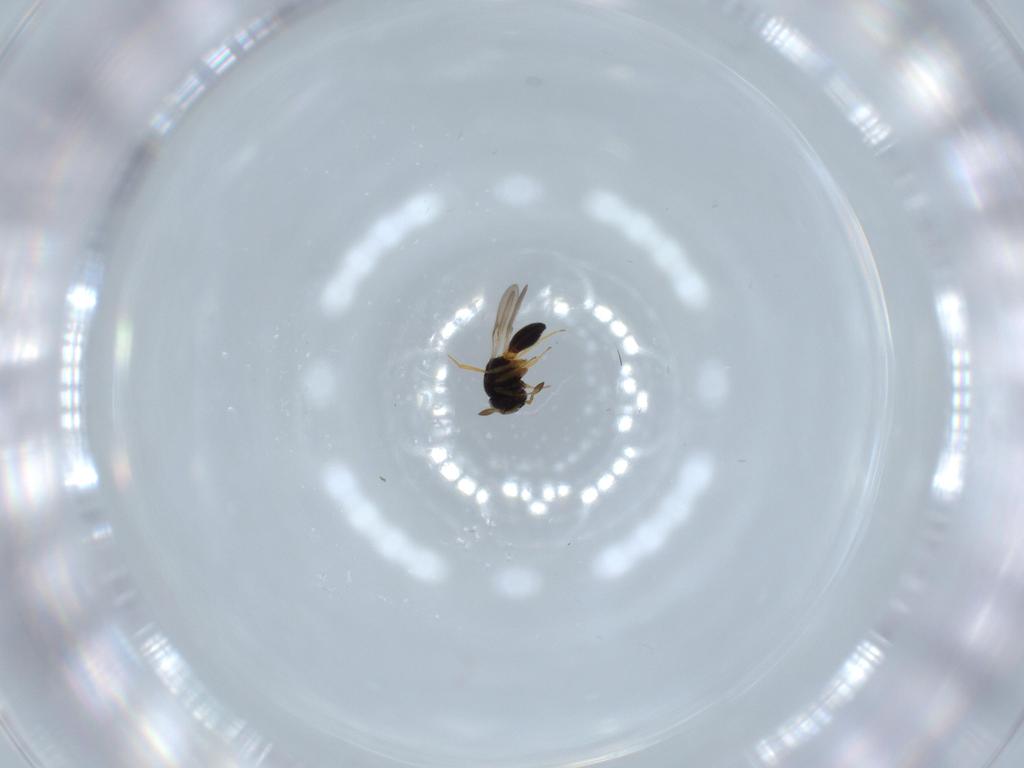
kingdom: Animalia
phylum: Arthropoda
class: Insecta
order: Hymenoptera
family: Scelionidae
